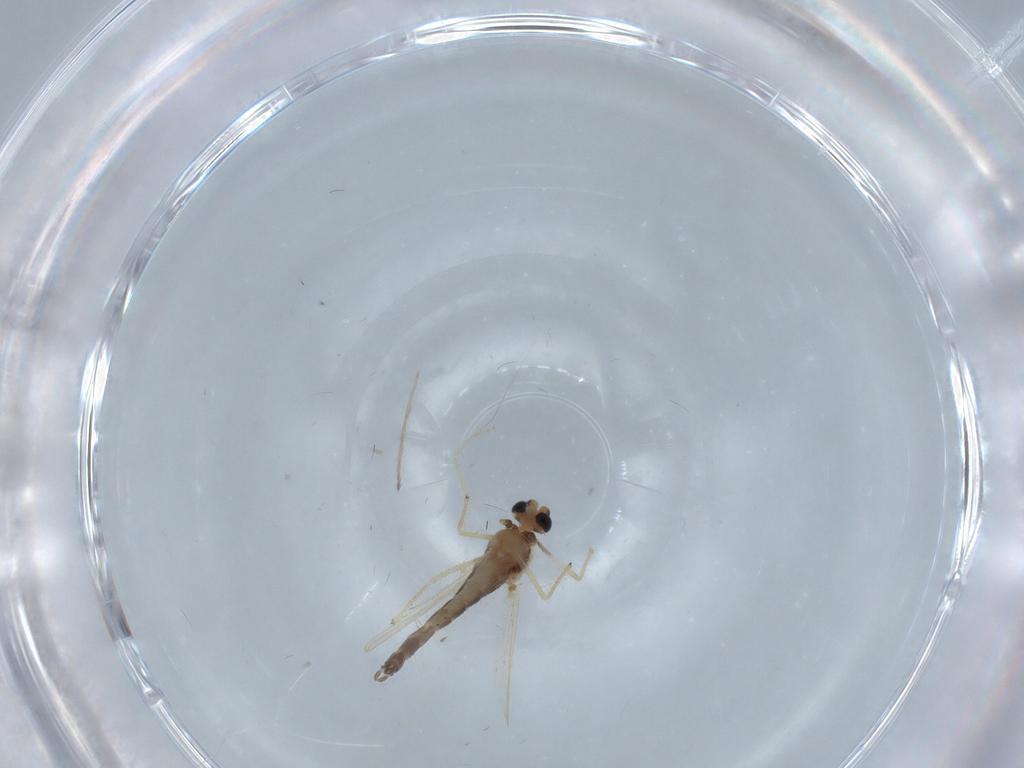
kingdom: Animalia
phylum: Arthropoda
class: Insecta
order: Diptera
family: Chironomidae
